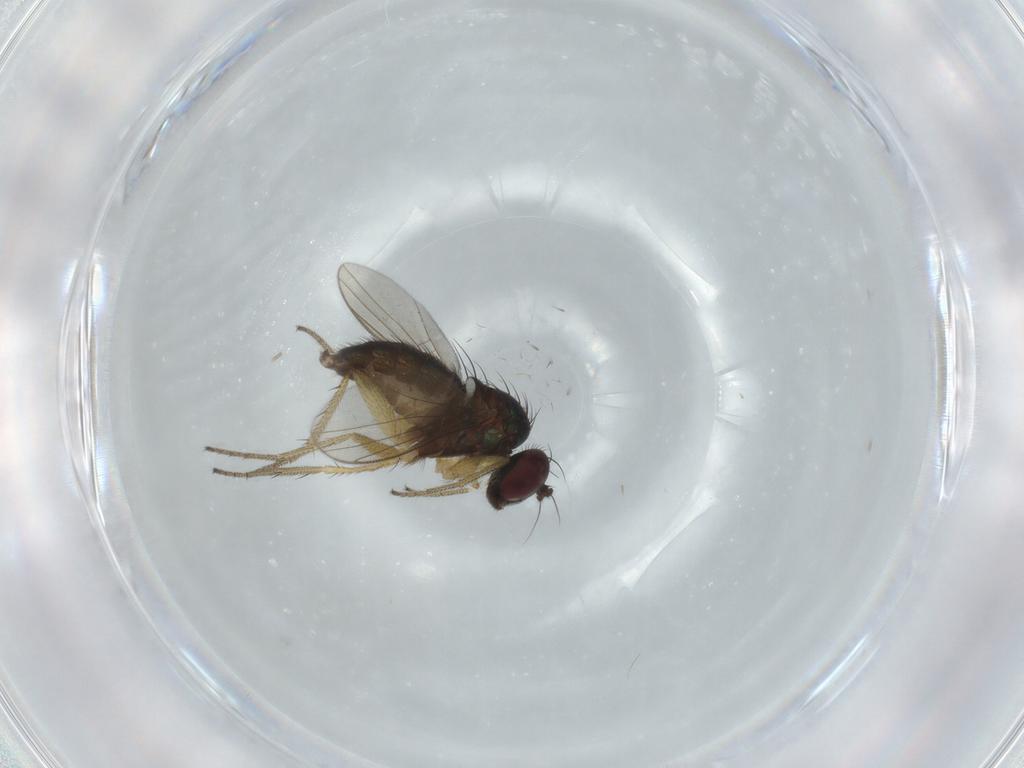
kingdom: Animalia
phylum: Arthropoda
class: Insecta
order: Diptera
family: Dolichopodidae
